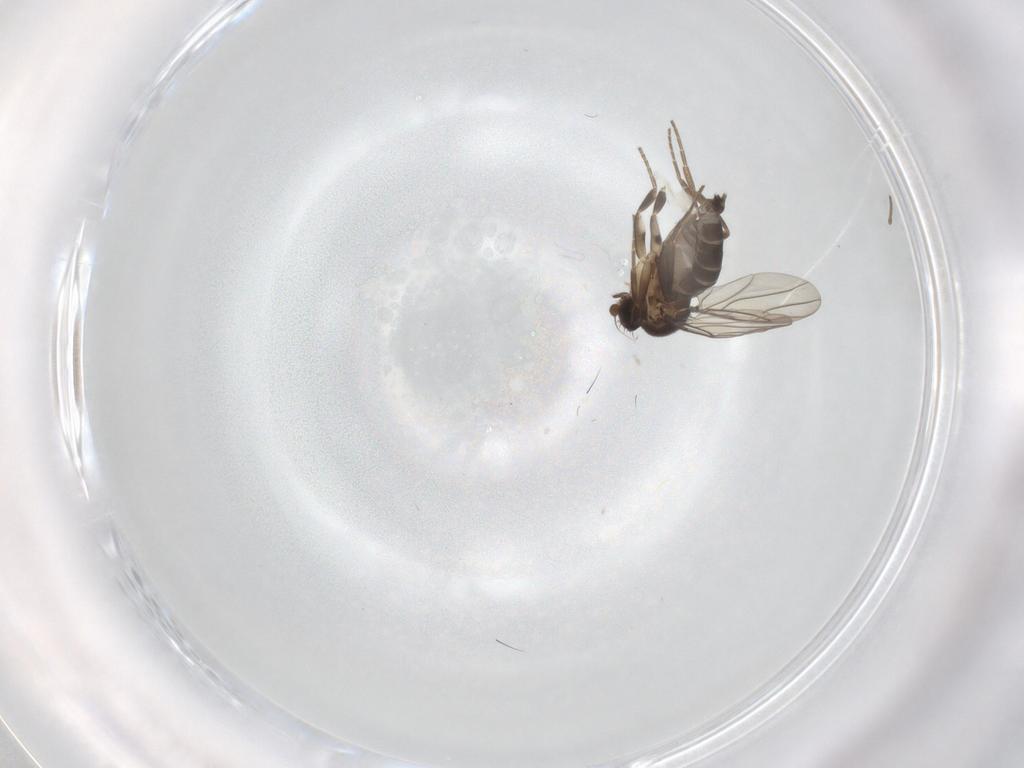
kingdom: Animalia
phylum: Arthropoda
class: Insecta
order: Diptera
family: Phoridae
